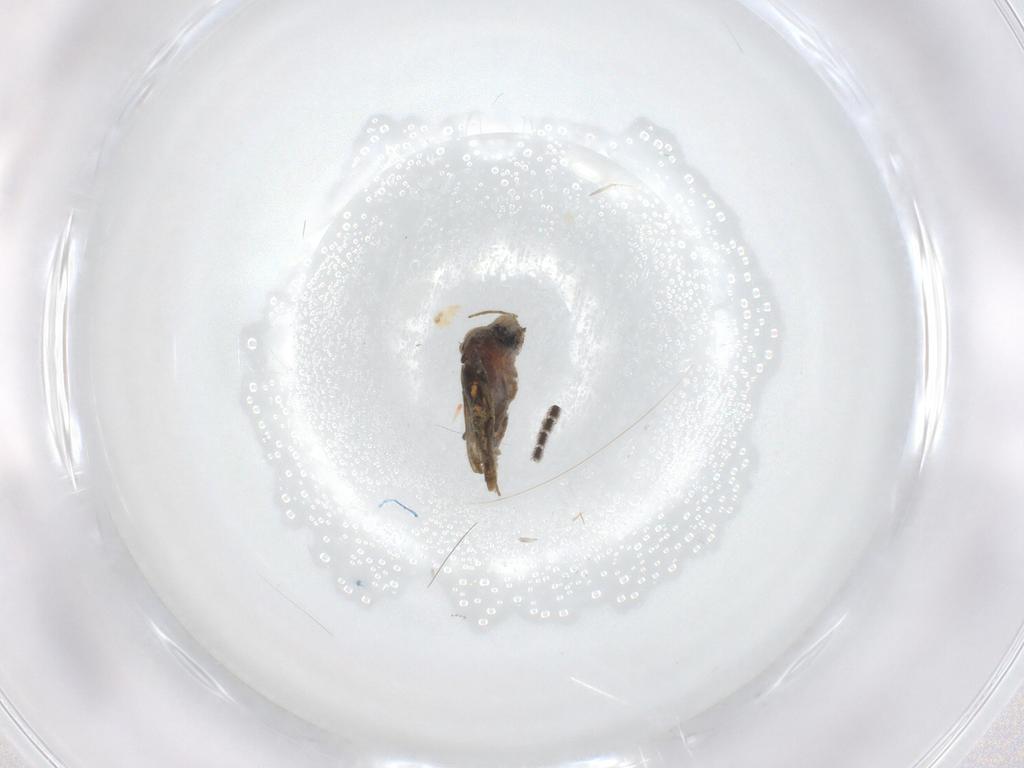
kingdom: Animalia
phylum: Arthropoda
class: Insecta
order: Diptera
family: Sciaridae
